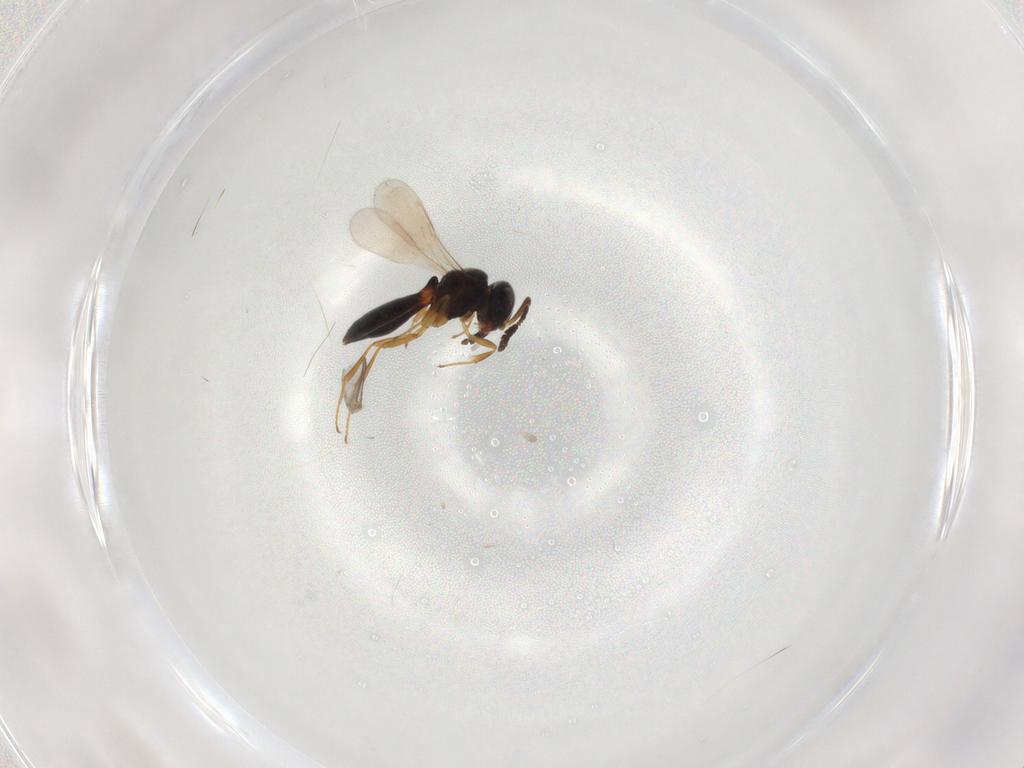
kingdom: Animalia
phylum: Arthropoda
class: Insecta
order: Hymenoptera
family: Scelionidae
